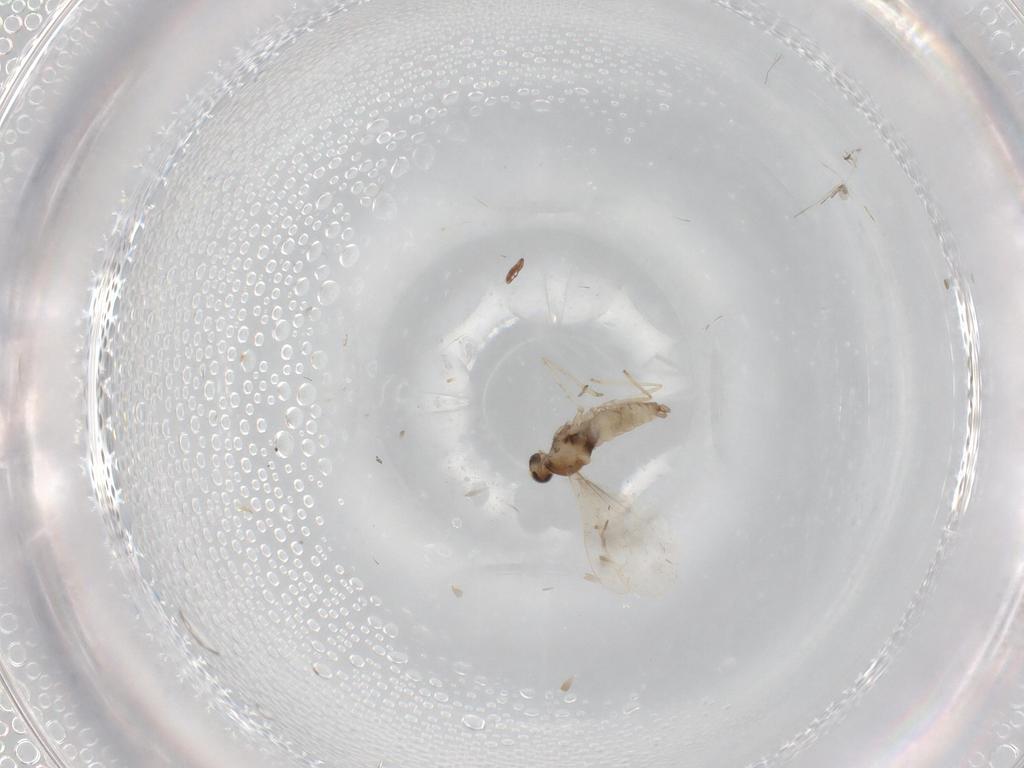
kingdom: Animalia
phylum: Arthropoda
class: Insecta
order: Diptera
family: Cecidomyiidae
